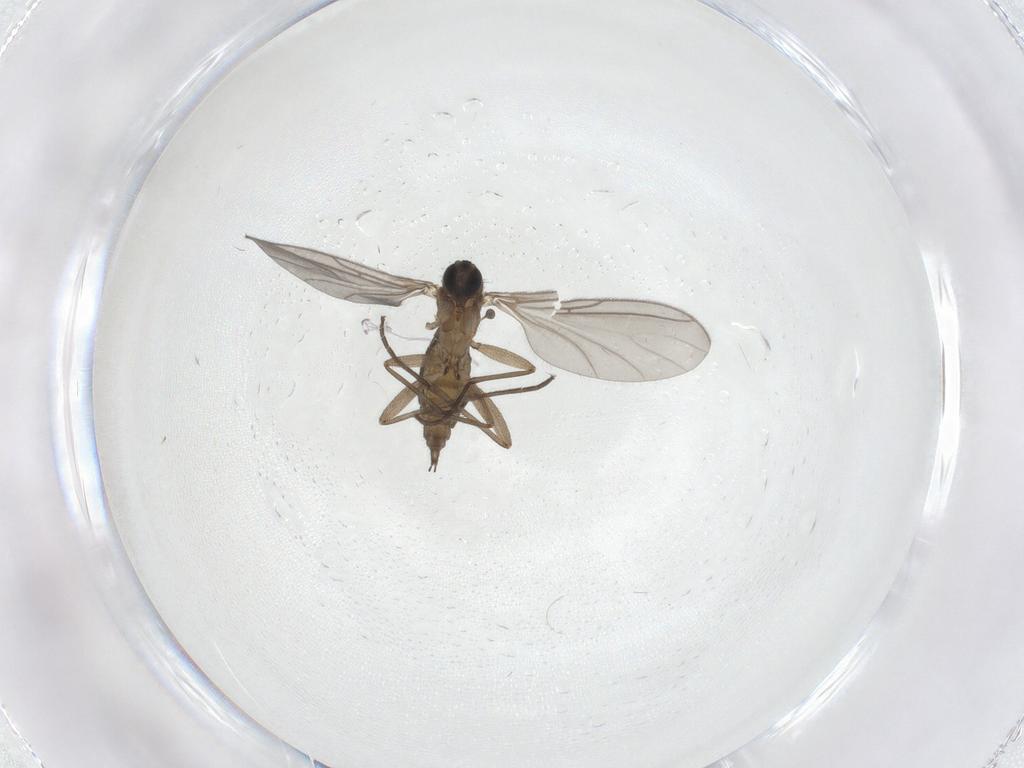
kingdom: Animalia
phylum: Arthropoda
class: Insecta
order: Diptera
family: Sciaridae
